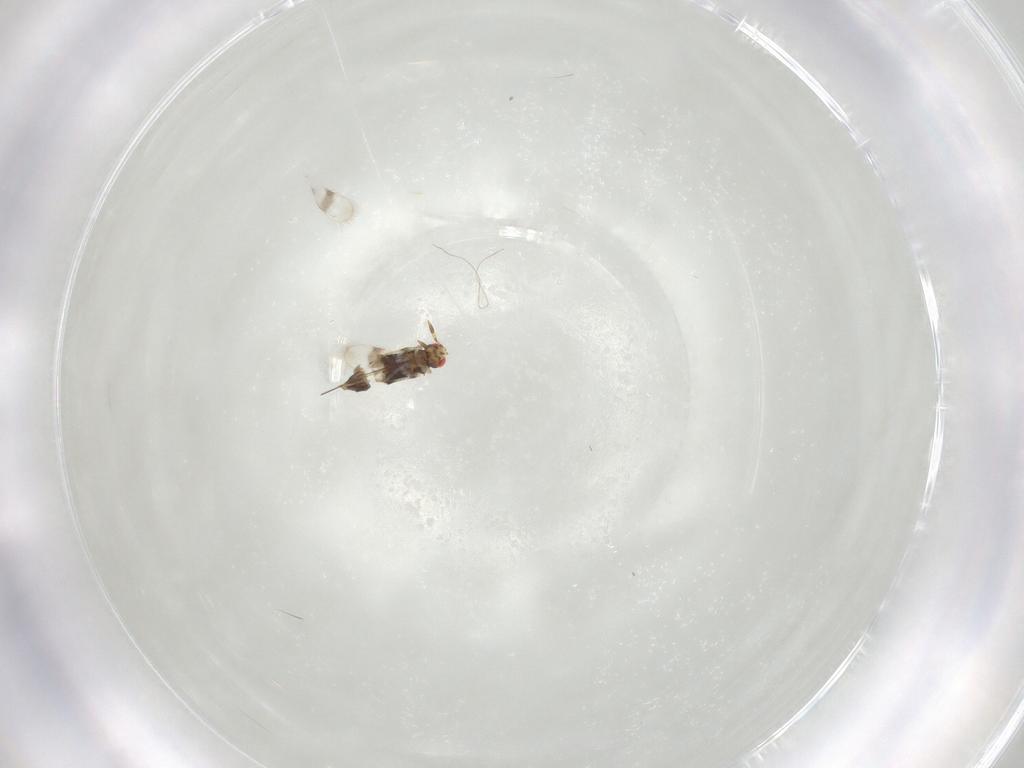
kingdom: Animalia
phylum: Arthropoda
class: Insecta
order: Hymenoptera
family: Azotidae
